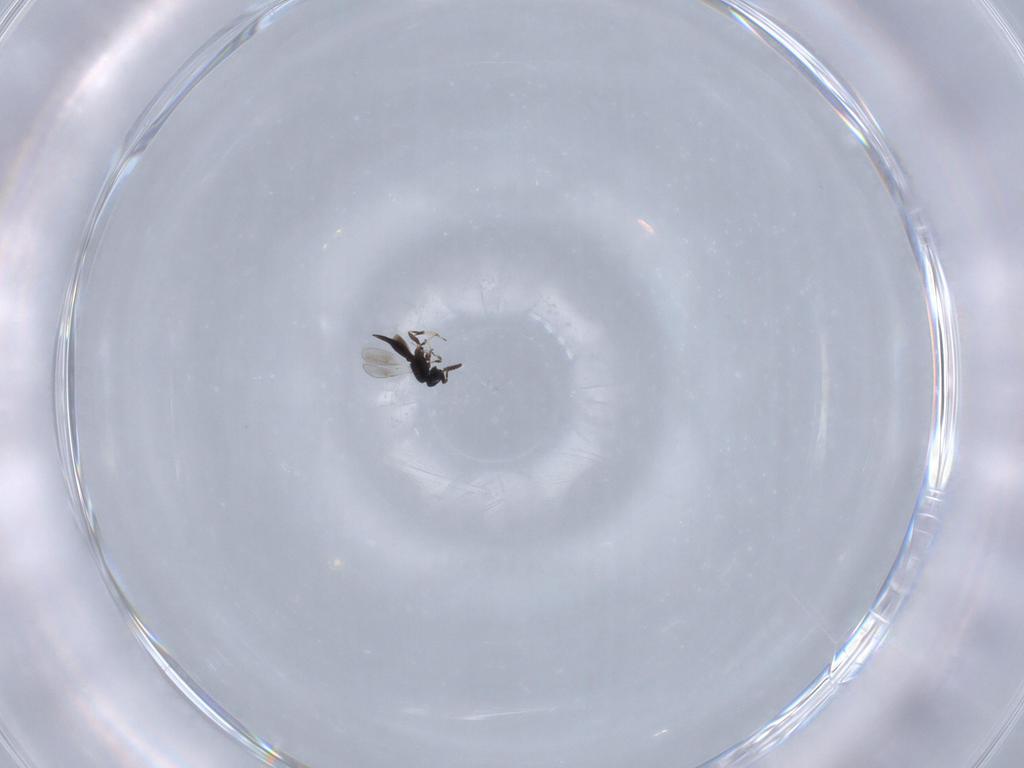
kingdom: Animalia
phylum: Arthropoda
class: Insecta
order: Hymenoptera
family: Scelionidae
